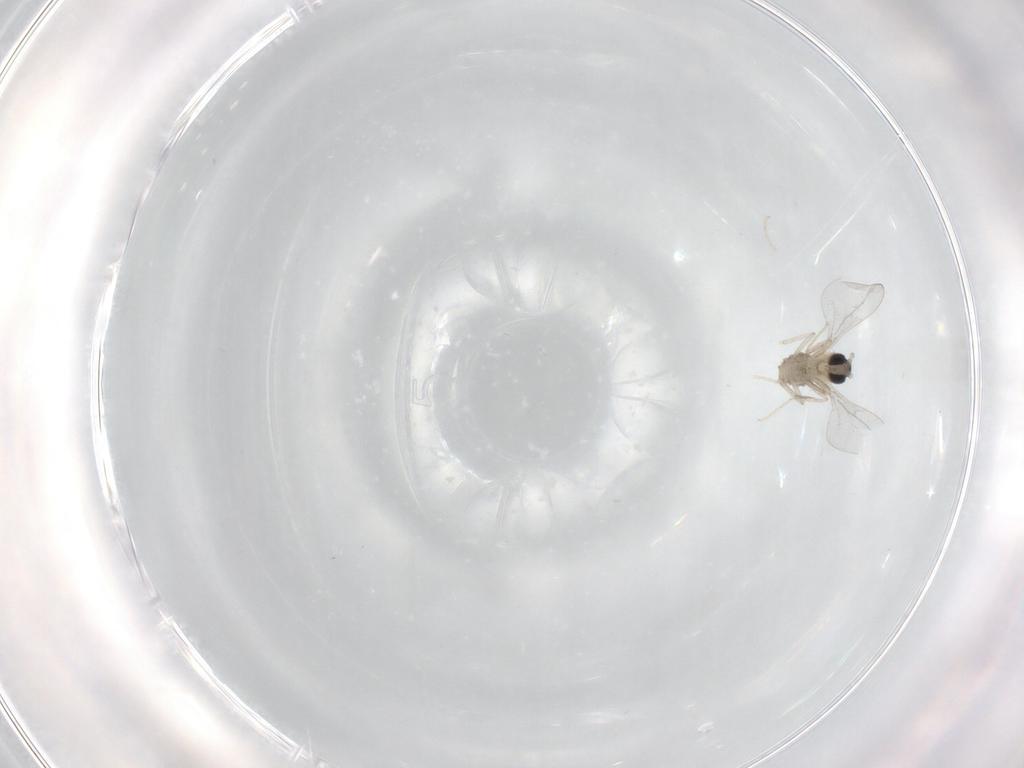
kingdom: Animalia
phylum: Arthropoda
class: Insecta
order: Diptera
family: Cecidomyiidae
